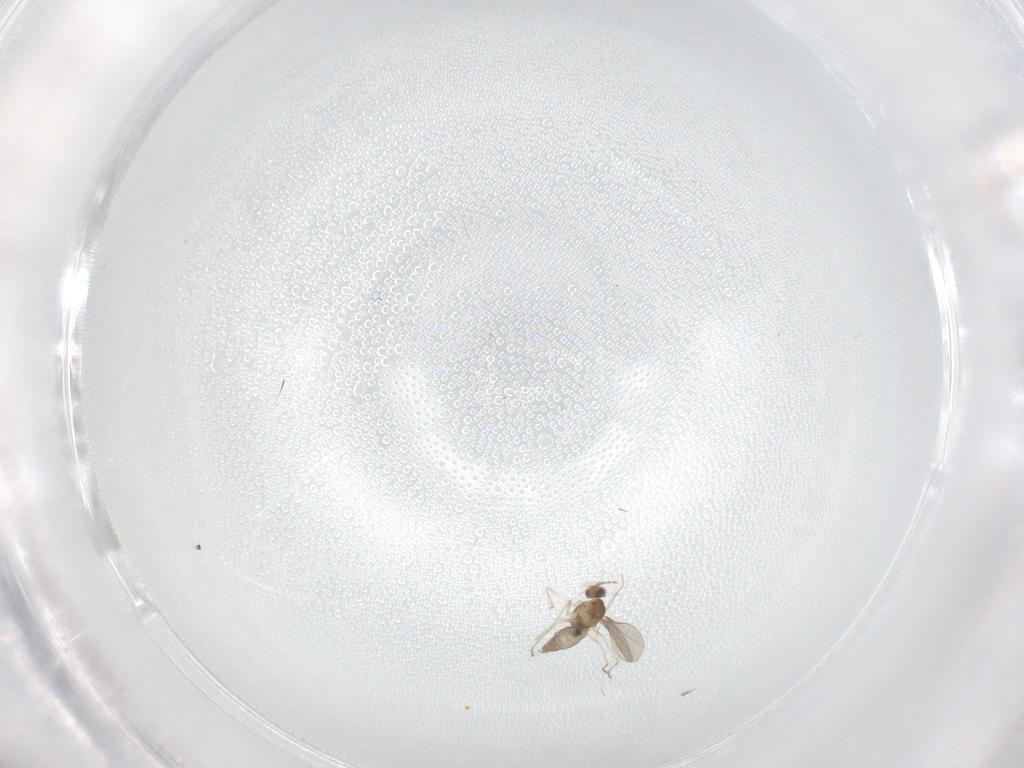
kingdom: Animalia
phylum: Arthropoda
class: Insecta
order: Diptera
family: Cecidomyiidae
